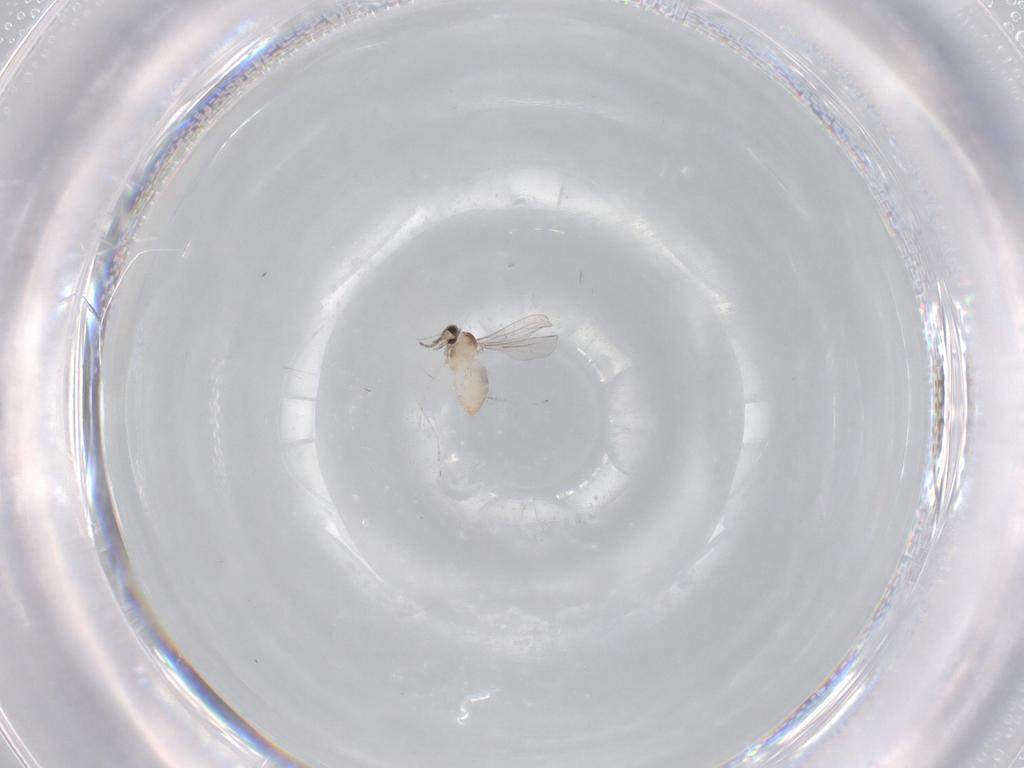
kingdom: Animalia
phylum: Arthropoda
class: Insecta
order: Diptera
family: Cecidomyiidae
